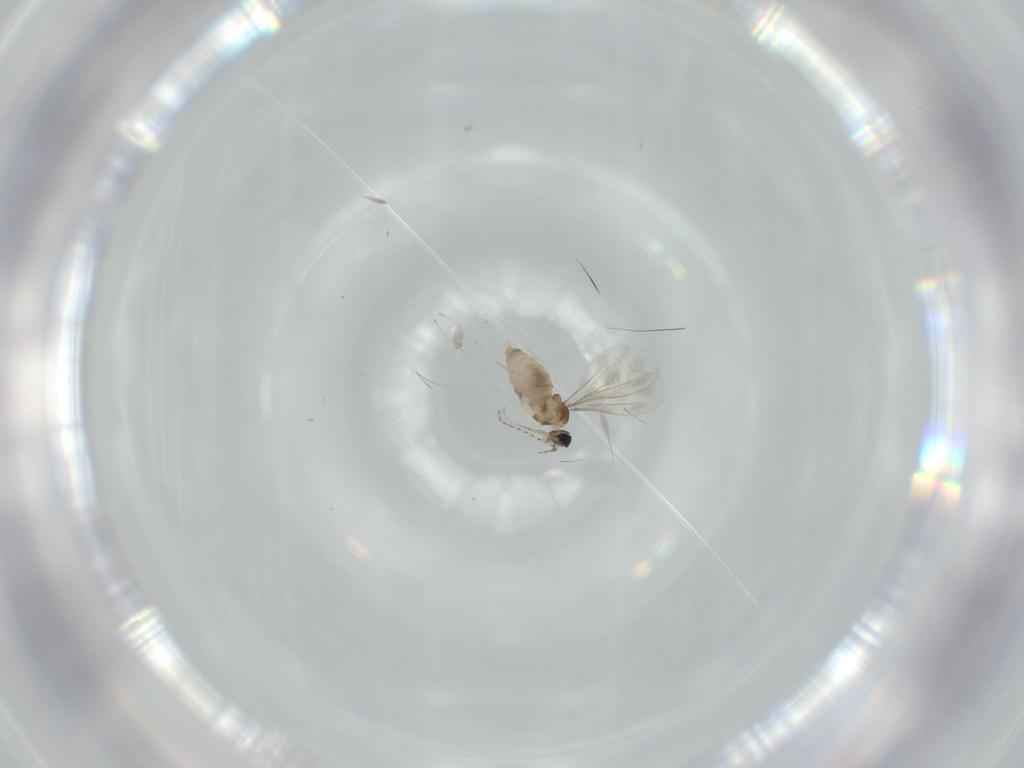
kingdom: Animalia
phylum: Arthropoda
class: Insecta
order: Diptera
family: Cecidomyiidae
